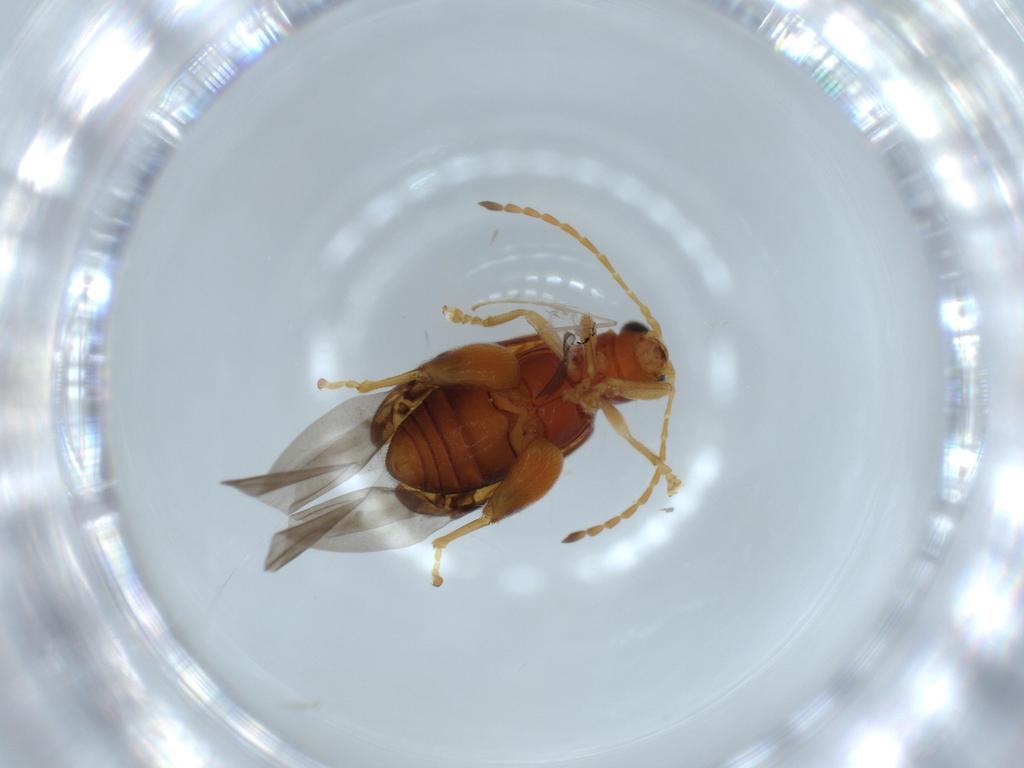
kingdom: Animalia
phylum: Arthropoda
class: Insecta
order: Coleoptera
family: Chrysomelidae
